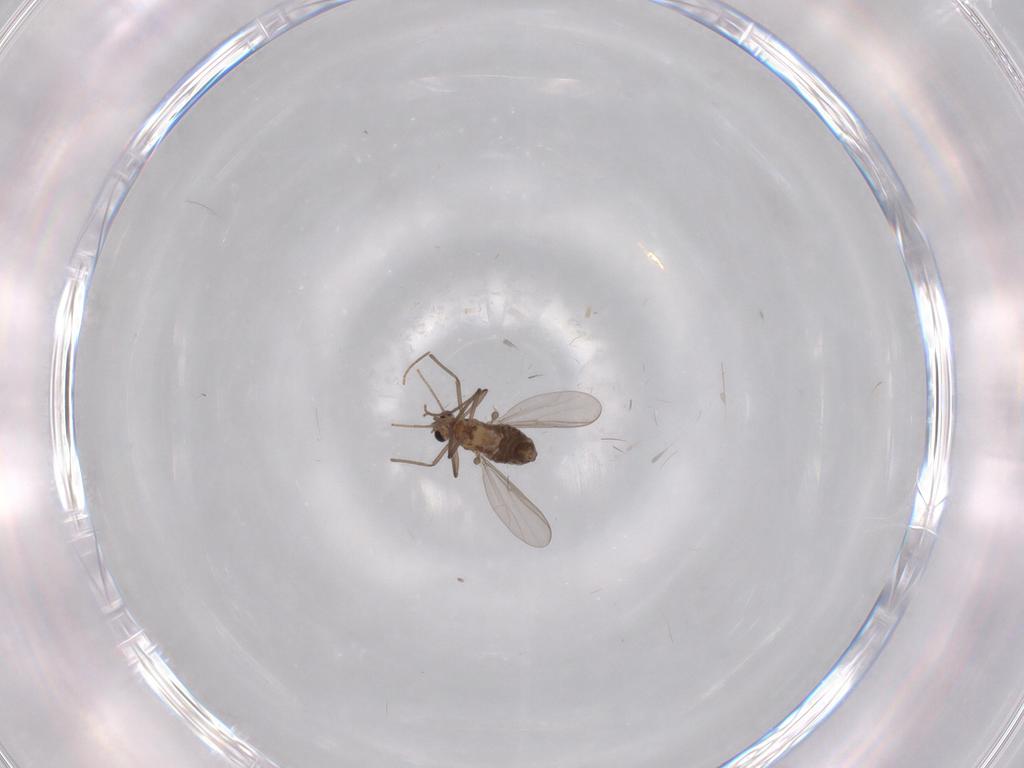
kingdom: Animalia
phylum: Arthropoda
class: Insecta
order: Diptera
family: Chironomidae
